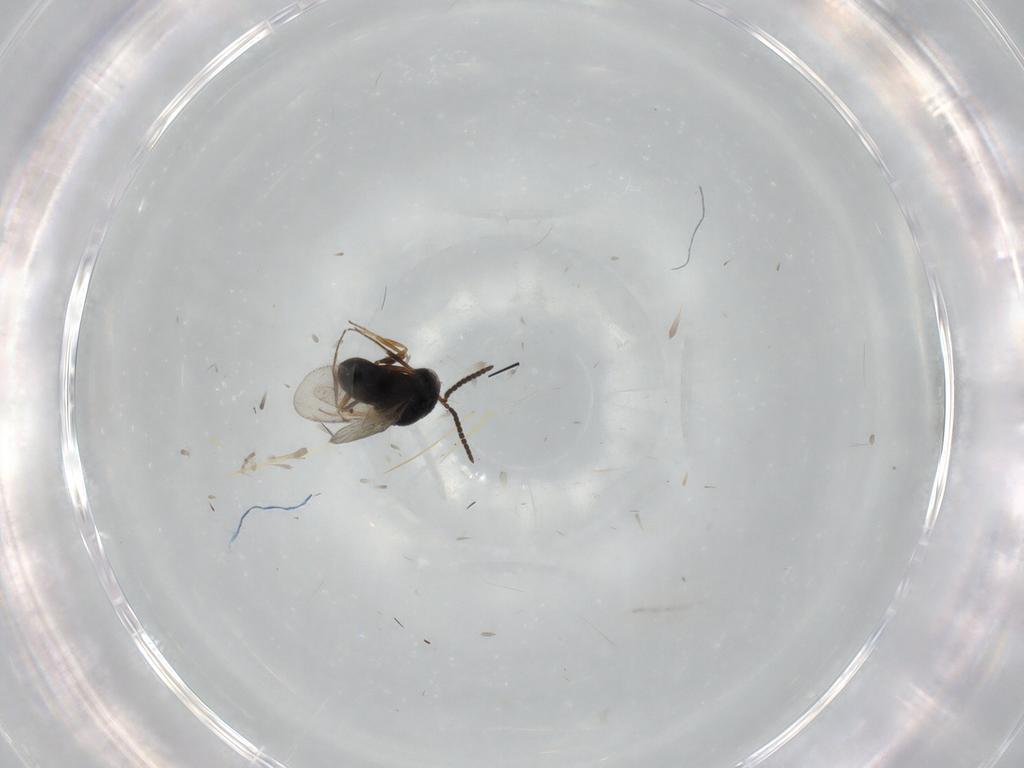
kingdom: Animalia
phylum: Arthropoda
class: Insecta
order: Hymenoptera
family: Scelionidae
